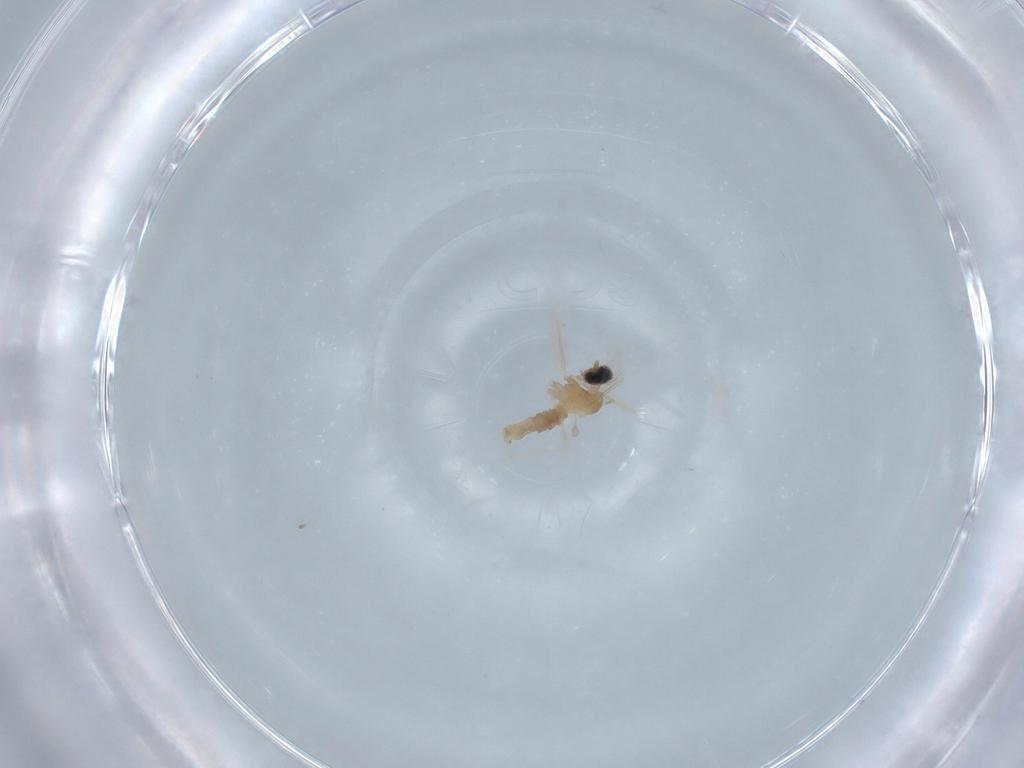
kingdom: Animalia
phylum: Arthropoda
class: Insecta
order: Diptera
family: Cecidomyiidae
